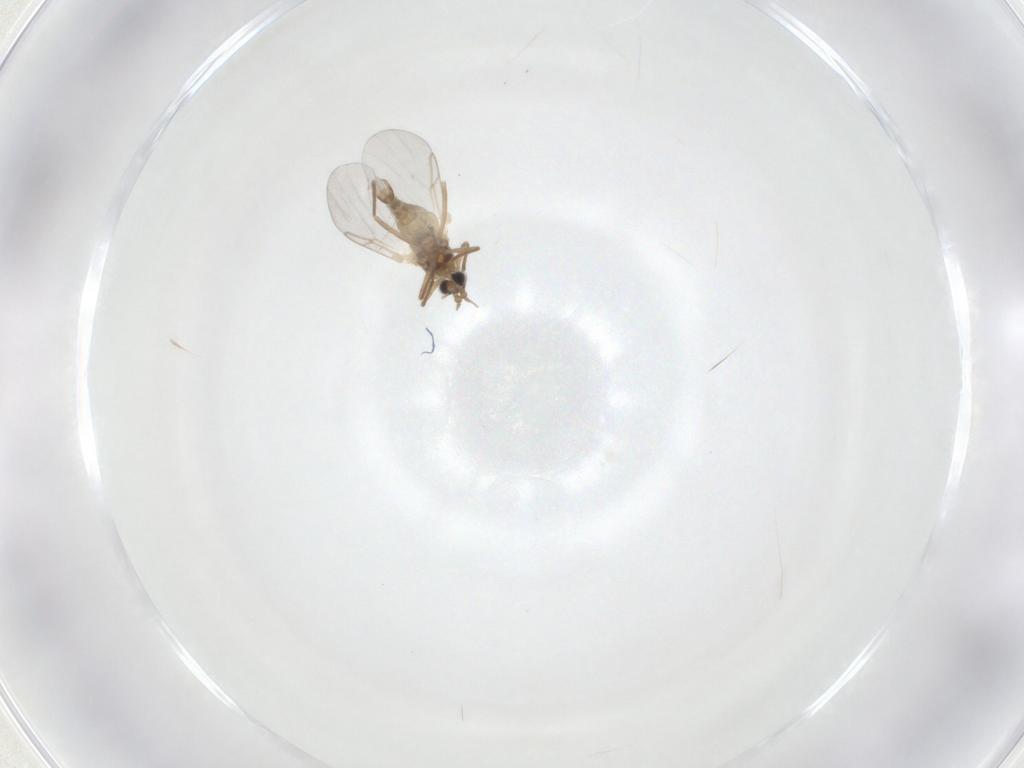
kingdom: Animalia
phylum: Arthropoda
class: Insecta
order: Diptera
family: Cecidomyiidae
